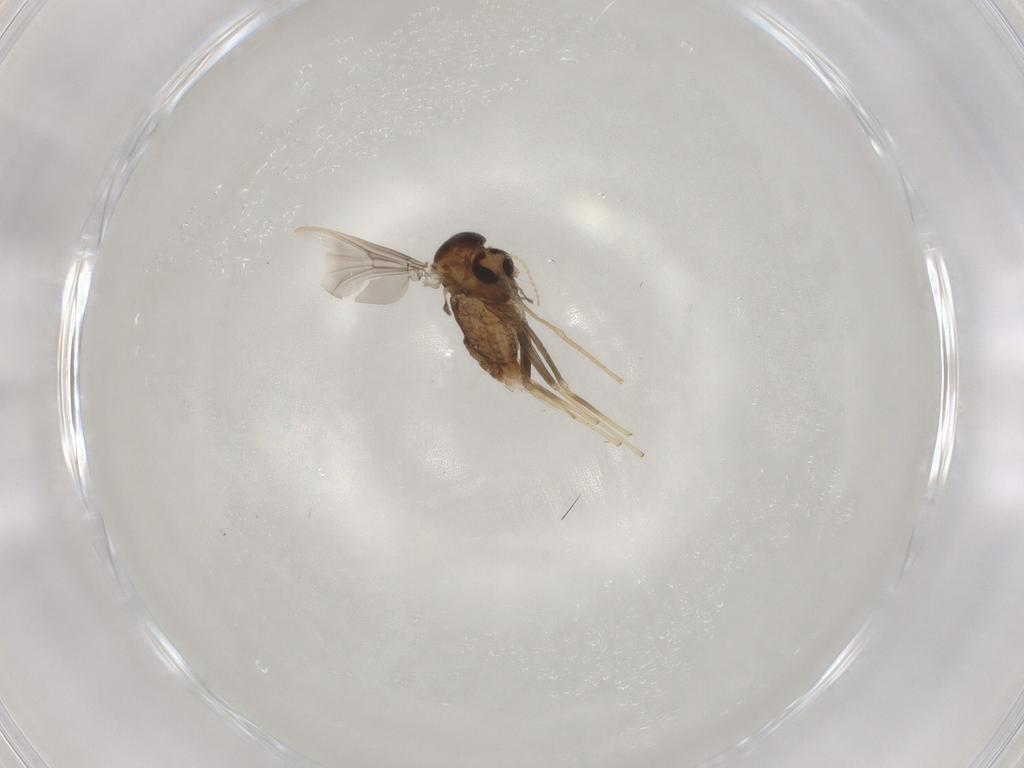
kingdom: Animalia
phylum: Arthropoda
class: Insecta
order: Diptera
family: Chironomidae
